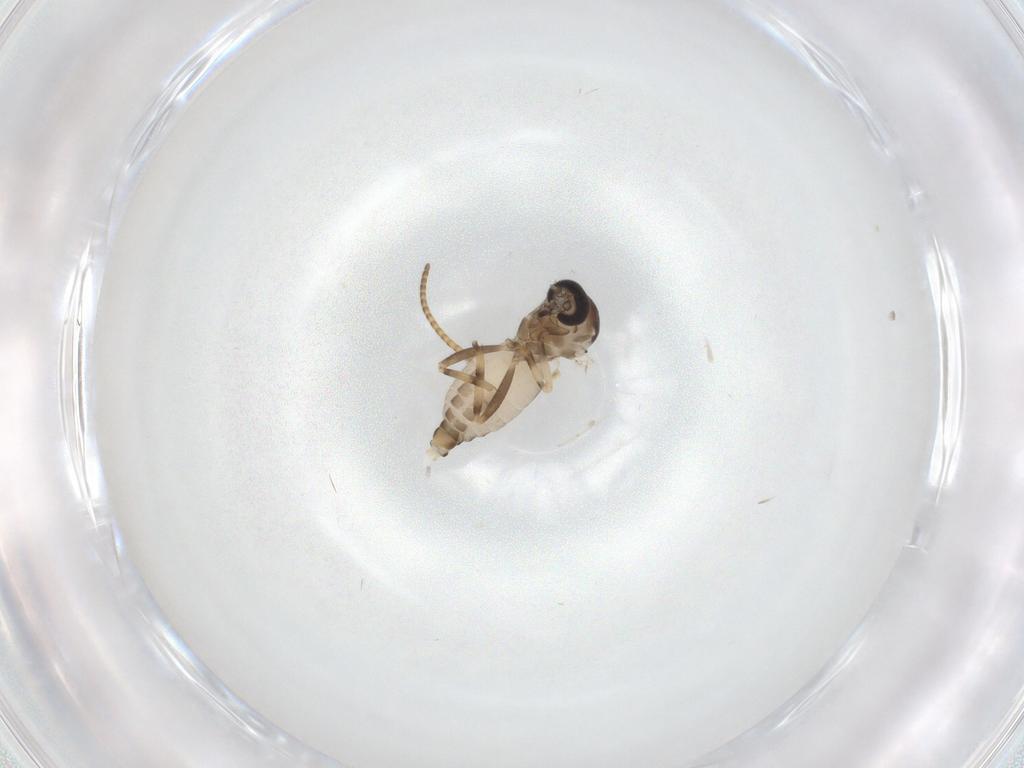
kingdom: Animalia
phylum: Arthropoda
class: Insecta
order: Diptera
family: Ceratopogonidae
